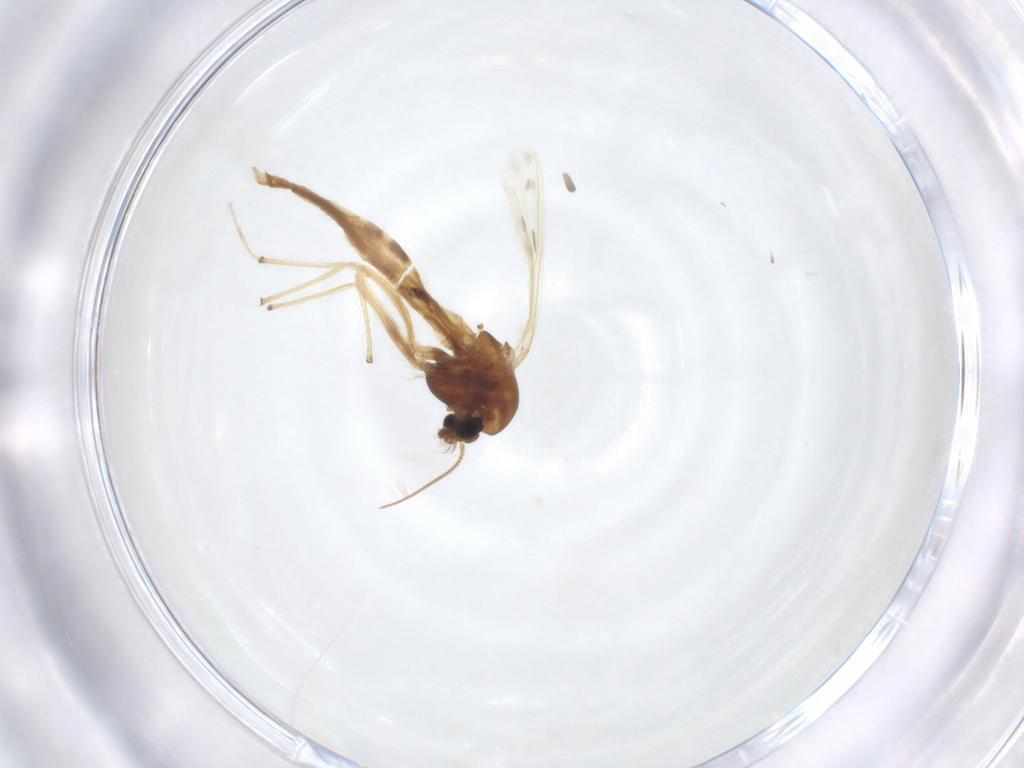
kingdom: Animalia
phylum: Arthropoda
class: Insecta
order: Diptera
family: Chironomidae
